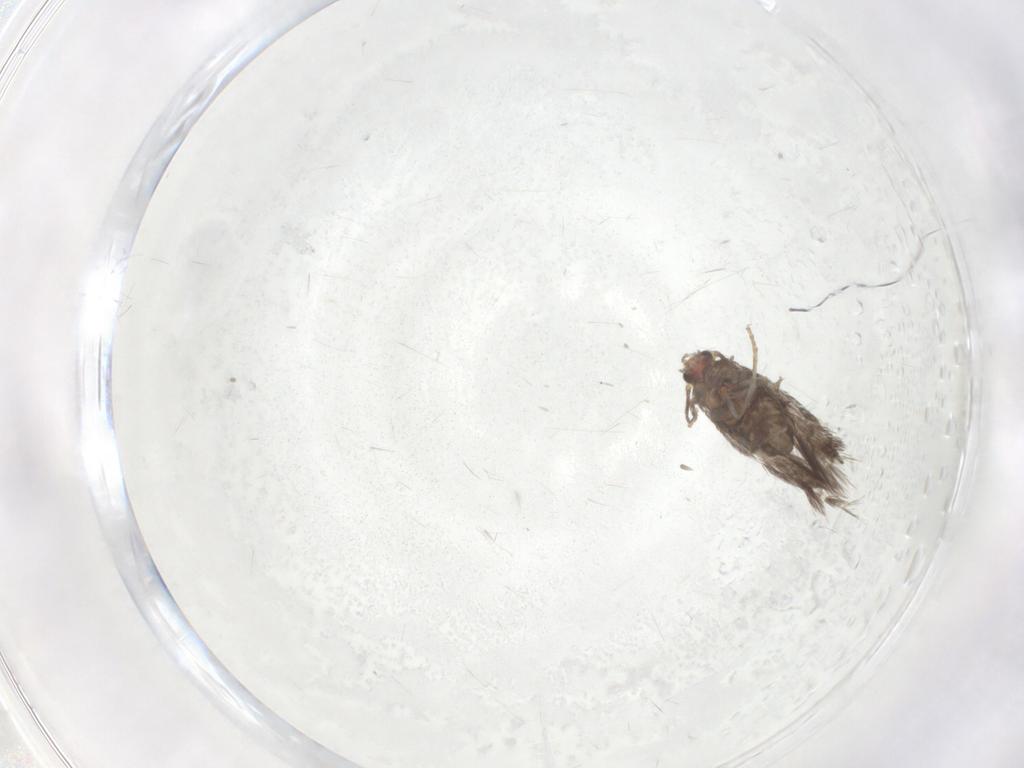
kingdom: Animalia
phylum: Arthropoda
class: Insecta
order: Lepidoptera
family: Nepticulidae
